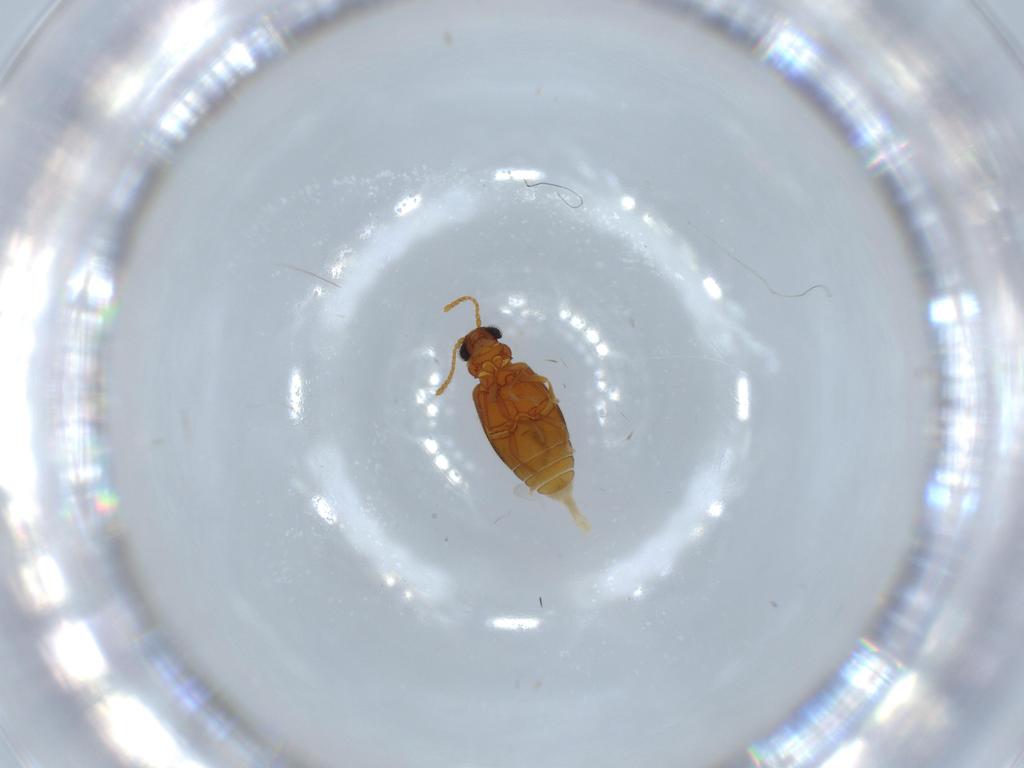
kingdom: Animalia
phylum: Arthropoda
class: Insecta
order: Coleoptera
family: Aderidae
